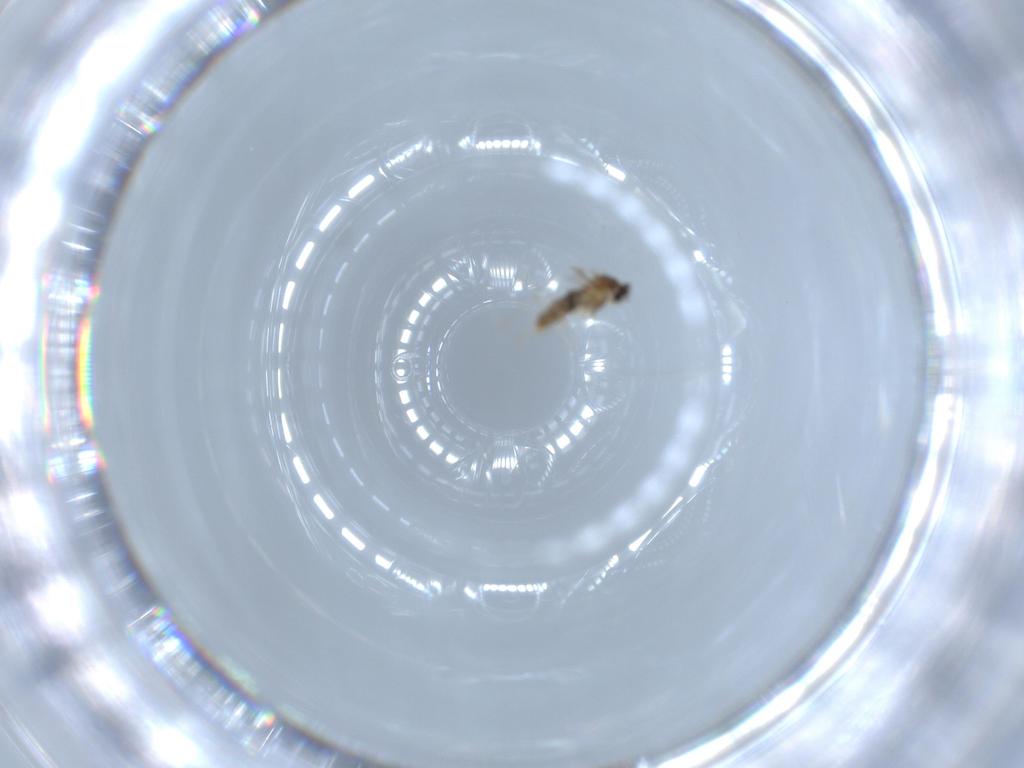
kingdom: Animalia
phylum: Arthropoda
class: Insecta
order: Diptera
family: Cecidomyiidae
